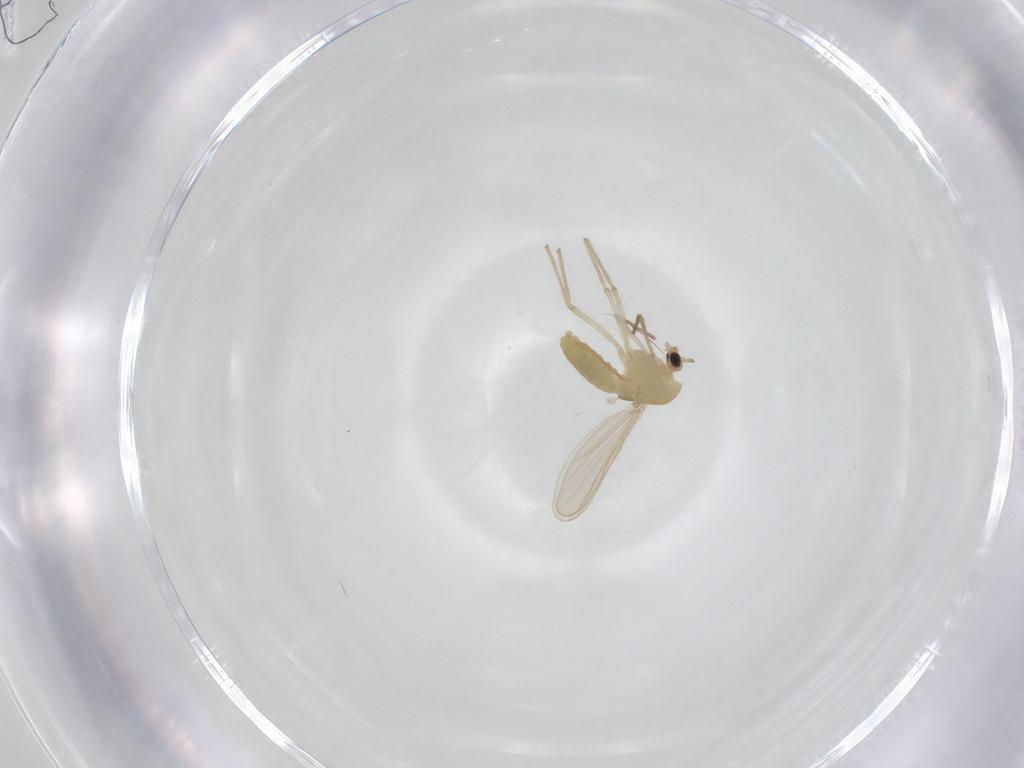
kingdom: Animalia
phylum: Arthropoda
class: Insecta
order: Diptera
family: Chironomidae
